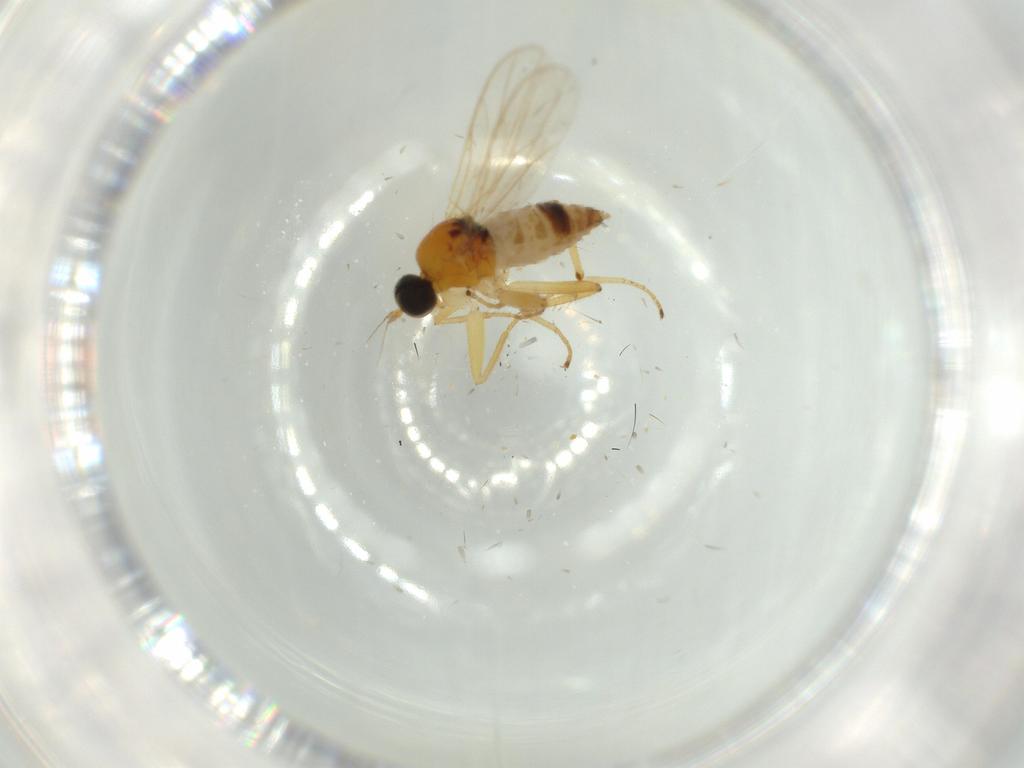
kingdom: Animalia
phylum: Arthropoda
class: Insecta
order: Diptera
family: Hybotidae
